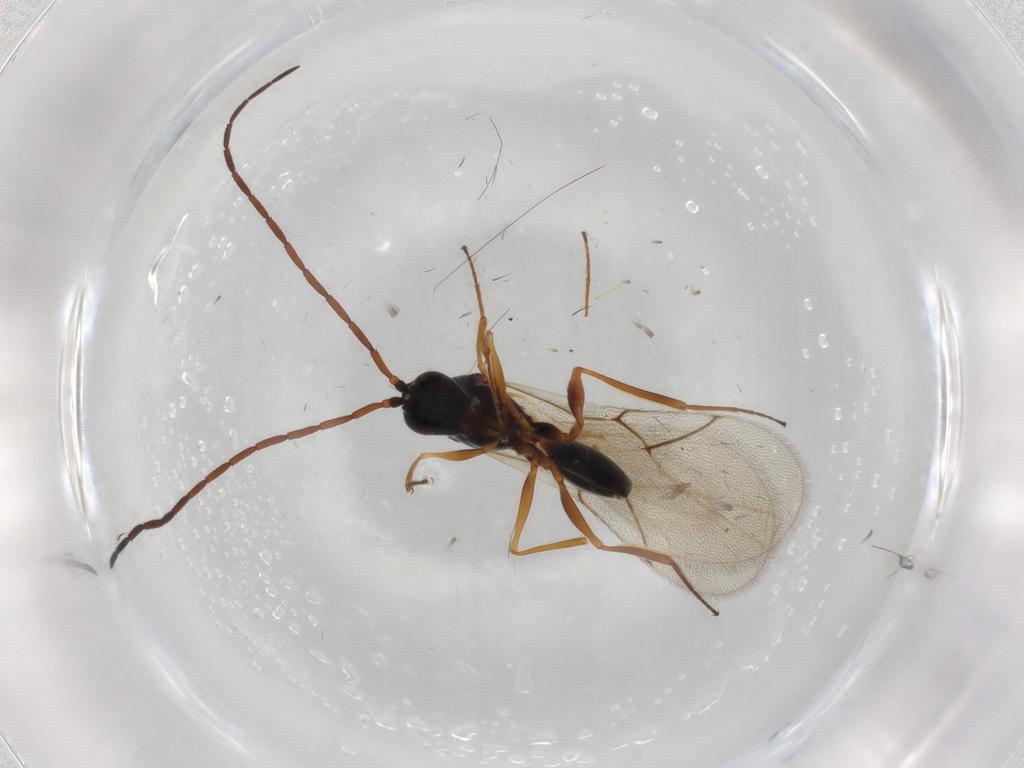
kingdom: Animalia
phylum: Arthropoda
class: Insecta
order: Hymenoptera
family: Figitidae
